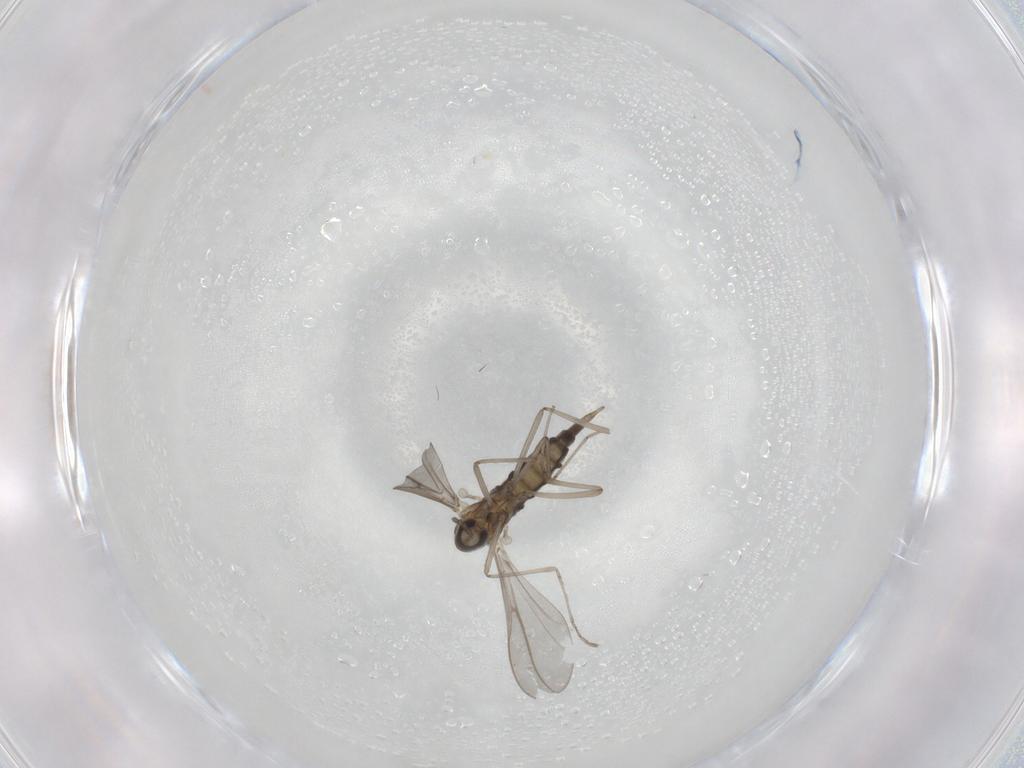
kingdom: Animalia
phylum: Arthropoda
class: Insecta
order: Diptera
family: Cecidomyiidae
